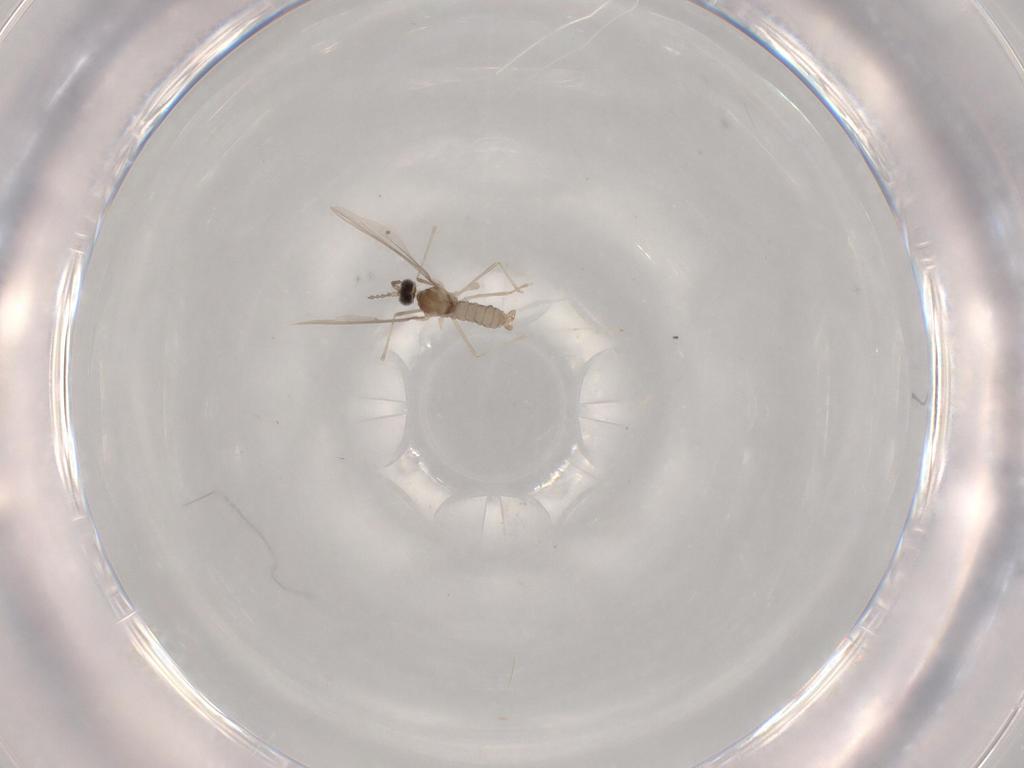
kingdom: Animalia
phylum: Arthropoda
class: Insecta
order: Diptera
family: Cecidomyiidae
